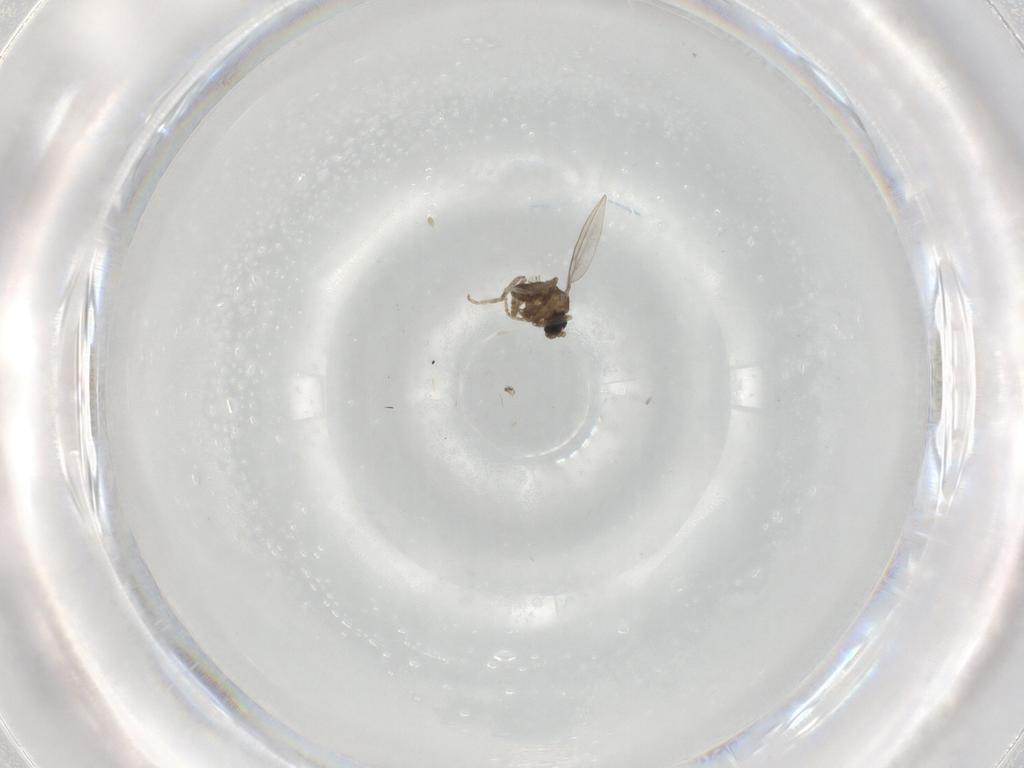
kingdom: Animalia
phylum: Arthropoda
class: Insecta
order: Diptera
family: Cecidomyiidae
